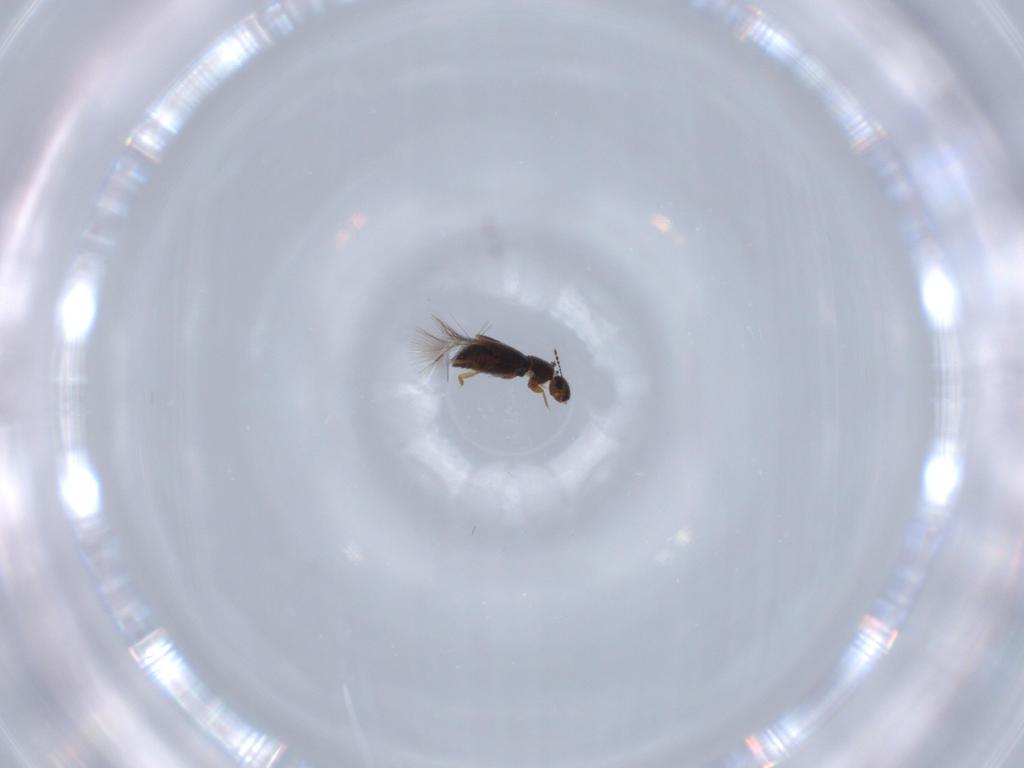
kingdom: Animalia
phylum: Arthropoda
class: Insecta
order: Coleoptera
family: Ptiliidae
